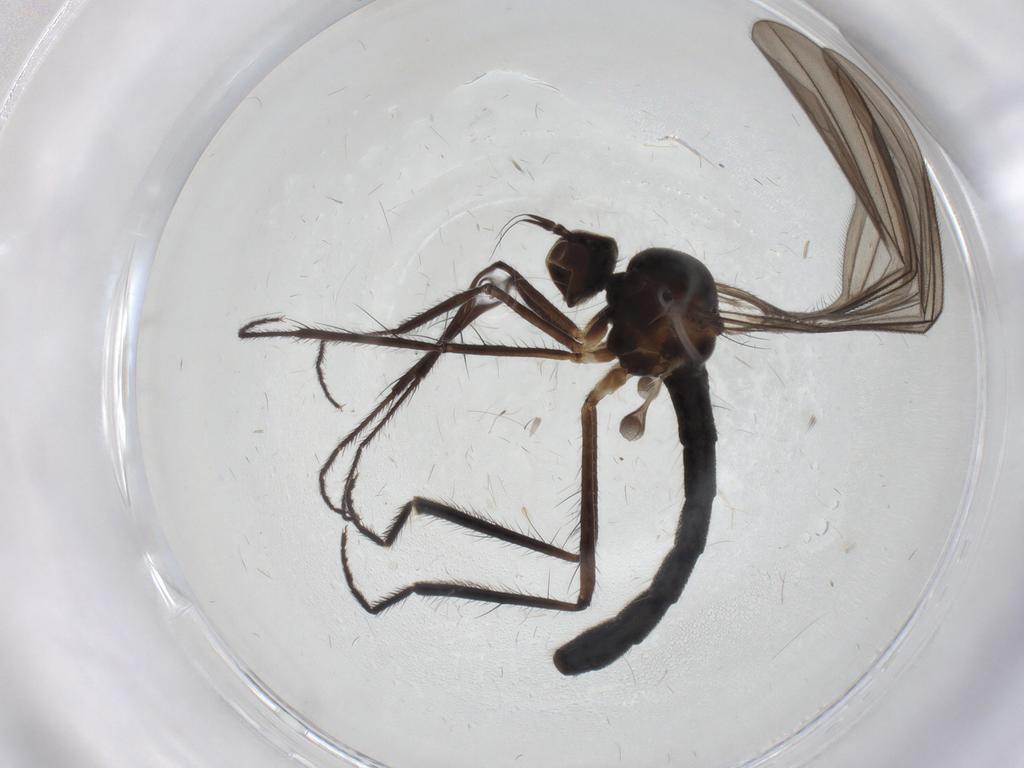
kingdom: Animalia
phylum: Arthropoda
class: Insecta
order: Diptera
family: Hybotidae
